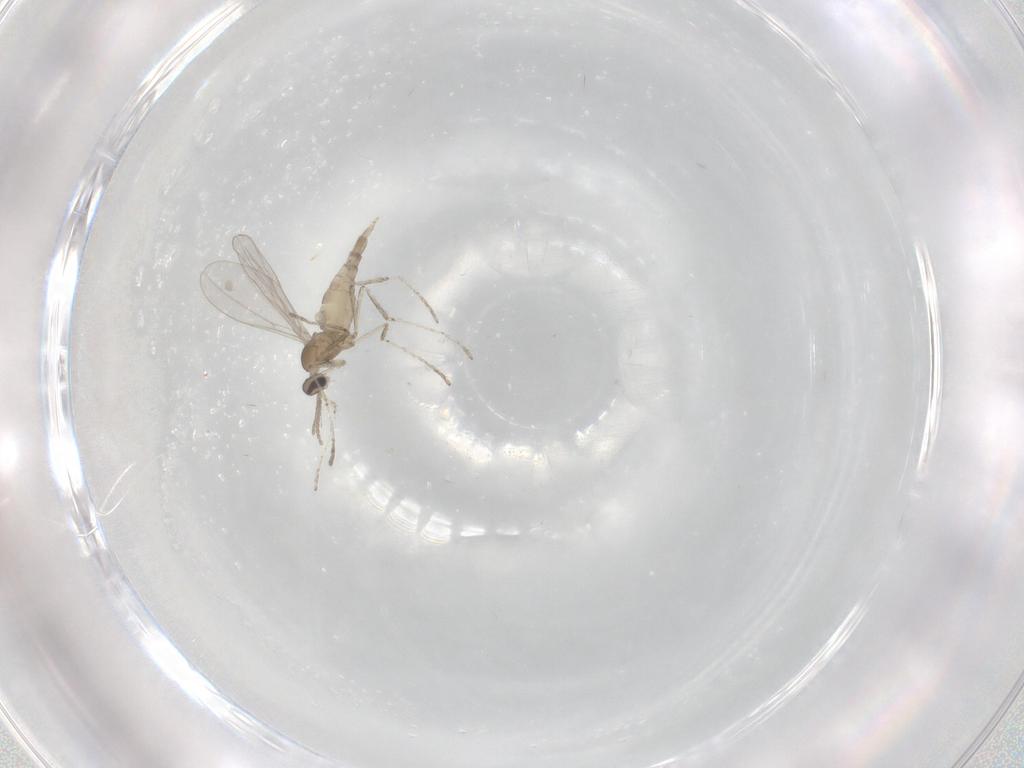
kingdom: Animalia
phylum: Arthropoda
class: Insecta
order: Diptera
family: Cecidomyiidae
